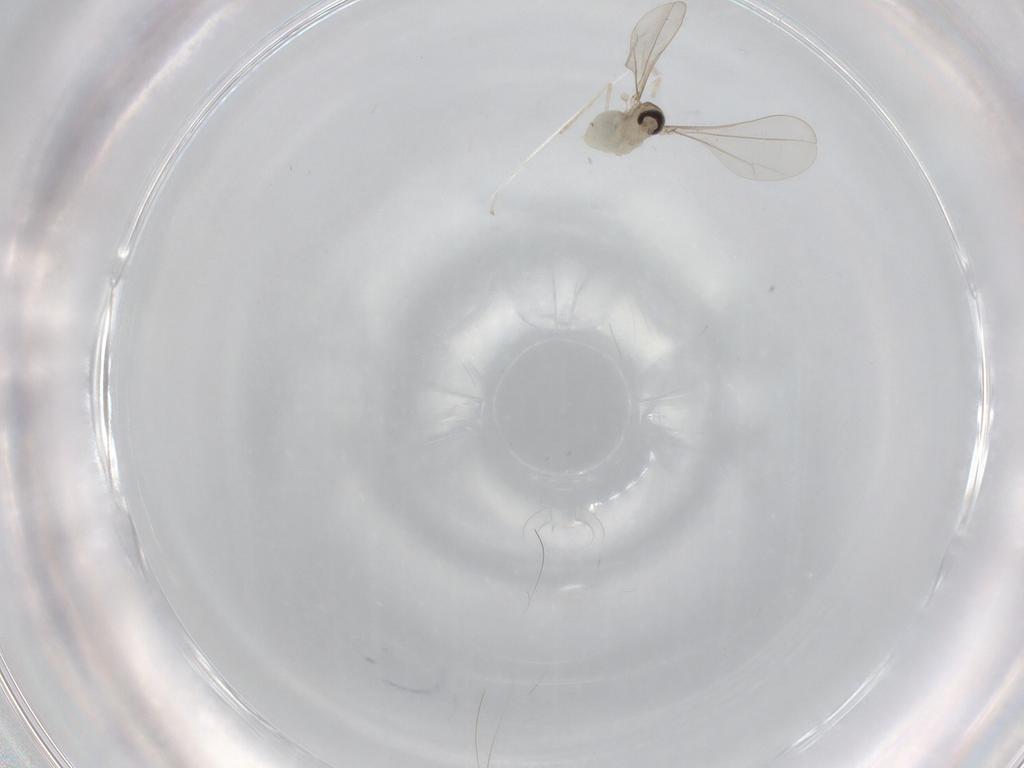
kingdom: Animalia
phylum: Arthropoda
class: Insecta
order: Diptera
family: Cecidomyiidae
